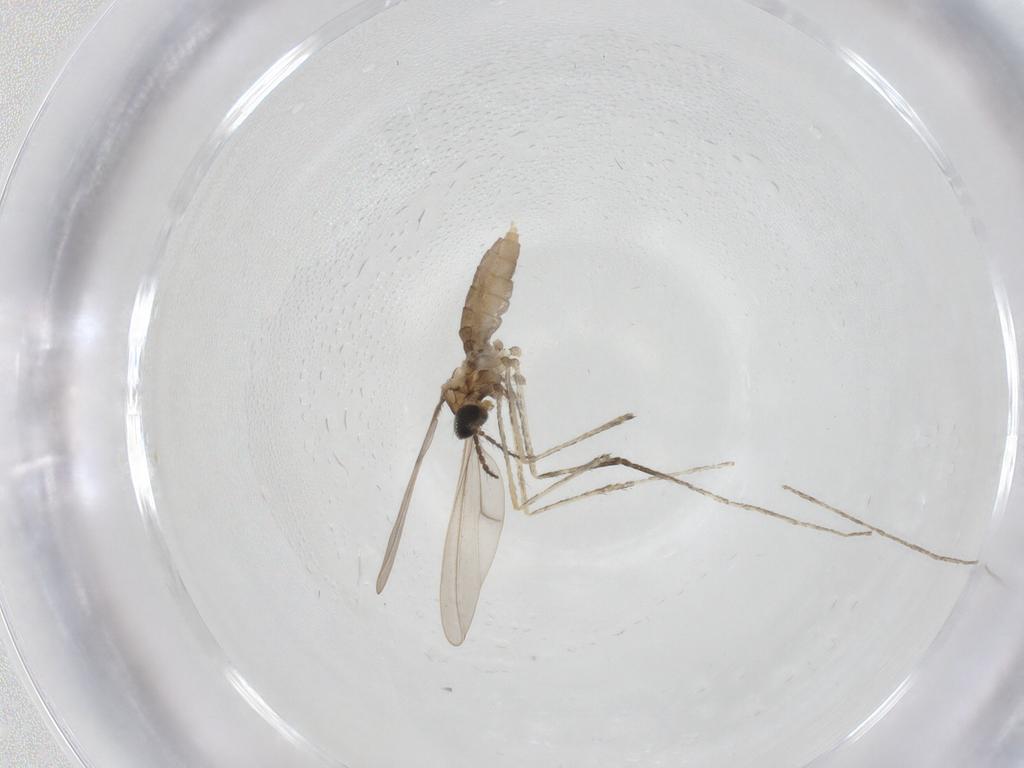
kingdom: Animalia
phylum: Arthropoda
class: Insecta
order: Diptera
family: Cecidomyiidae
